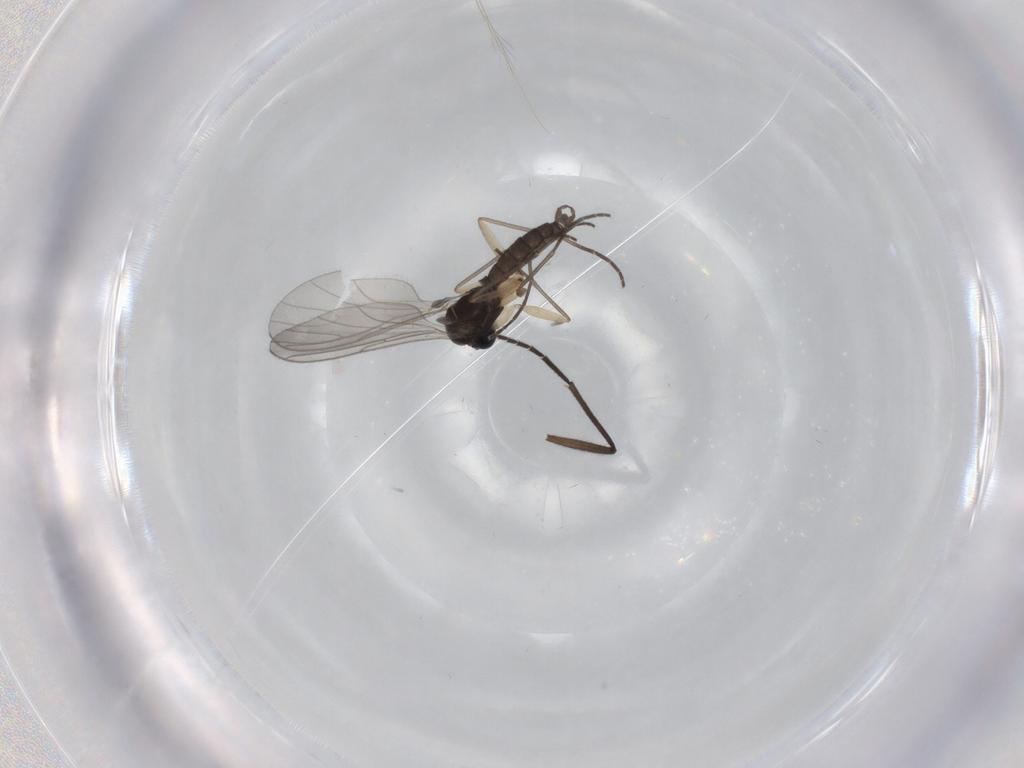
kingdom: Animalia
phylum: Arthropoda
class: Insecta
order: Diptera
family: Sciaridae
